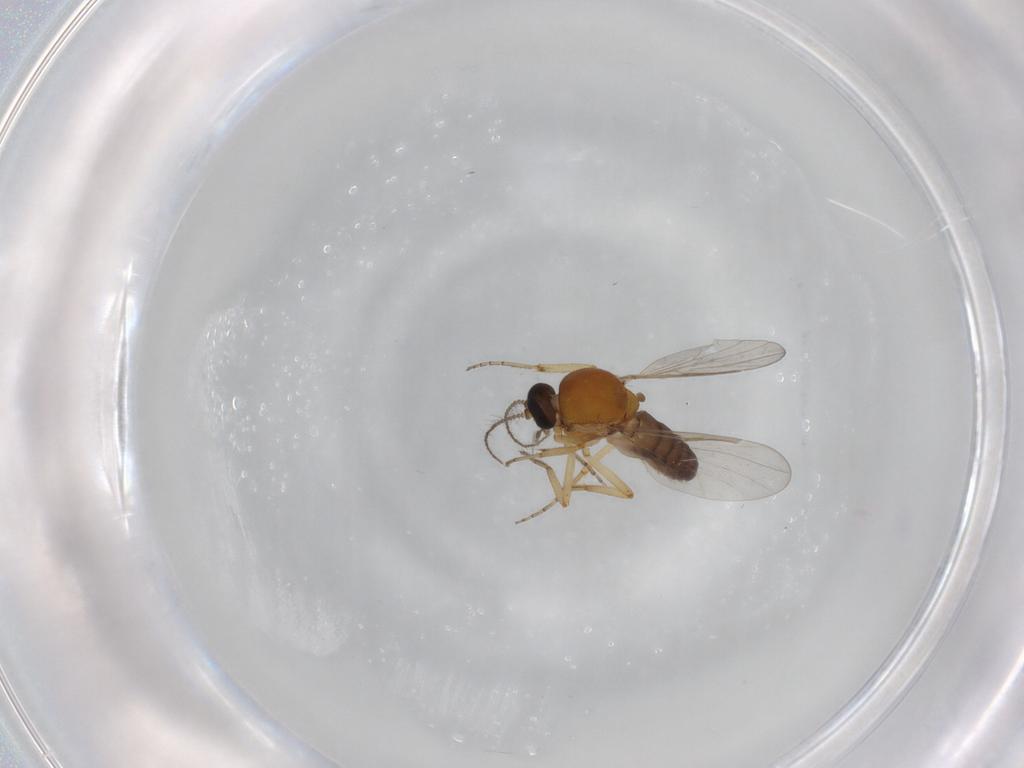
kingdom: Animalia
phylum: Arthropoda
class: Insecta
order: Diptera
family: Ceratopogonidae
